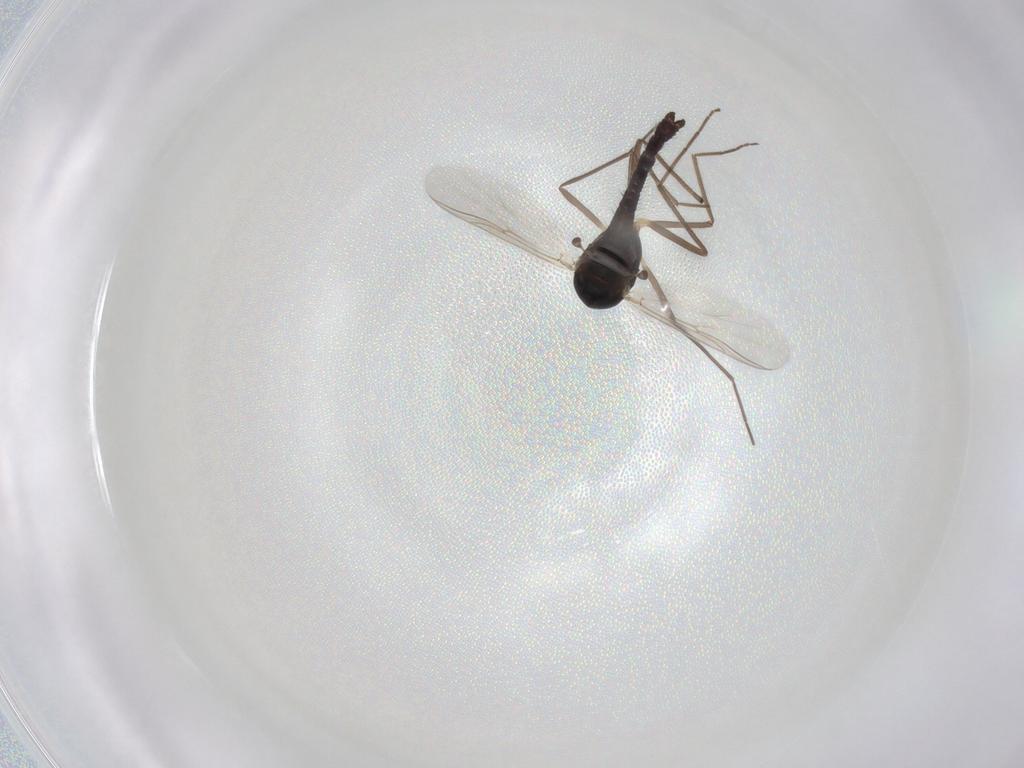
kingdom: Animalia
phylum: Arthropoda
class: Insecta
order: Diptera
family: Chironomidae
